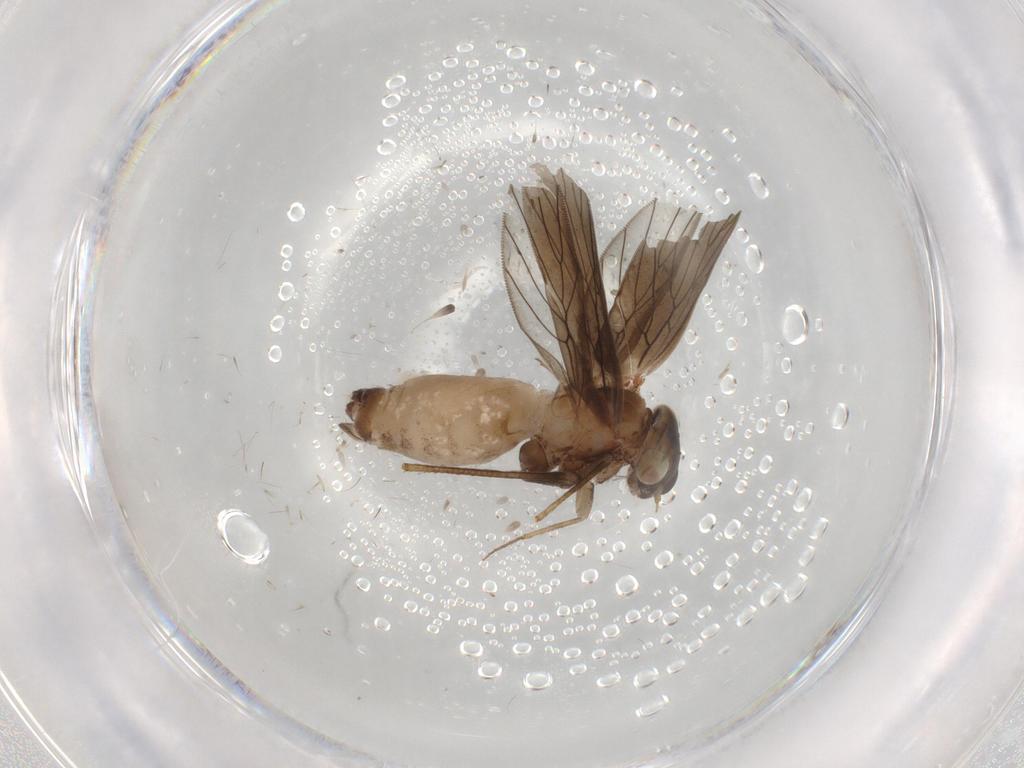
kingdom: Animalia
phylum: Arthropoda
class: Insecta
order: Psocodea
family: Lepidopsocidae
